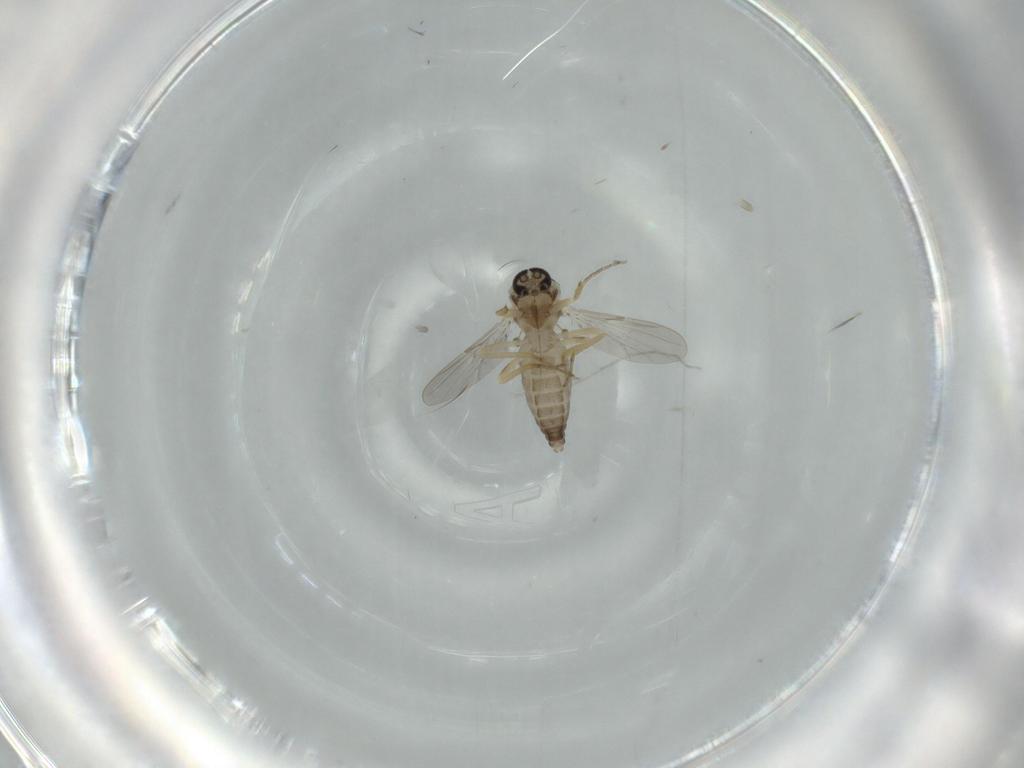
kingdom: Animalia
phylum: Arthropoda
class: Insecta
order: Diptera
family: Ceratopogonidae
